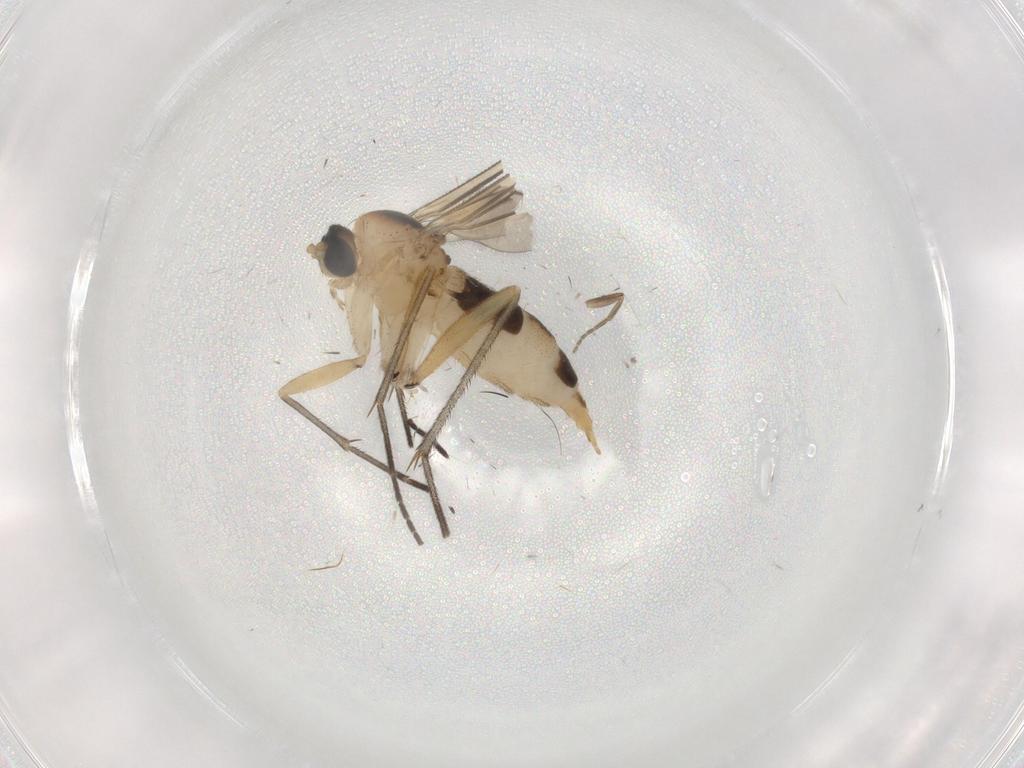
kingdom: Animalia
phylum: Arthropoda
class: Insecta
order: Diptera
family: Sciaridae
